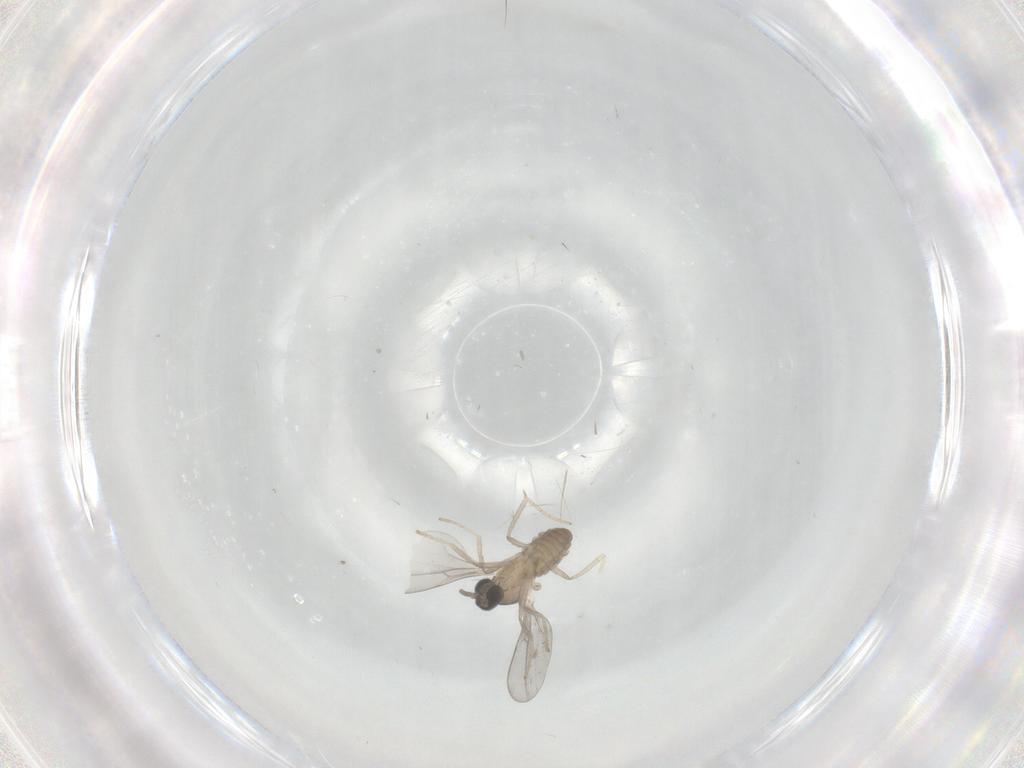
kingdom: Animalia
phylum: Arthropoda
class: Insecta
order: Diptera
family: Cecidomyiidae
